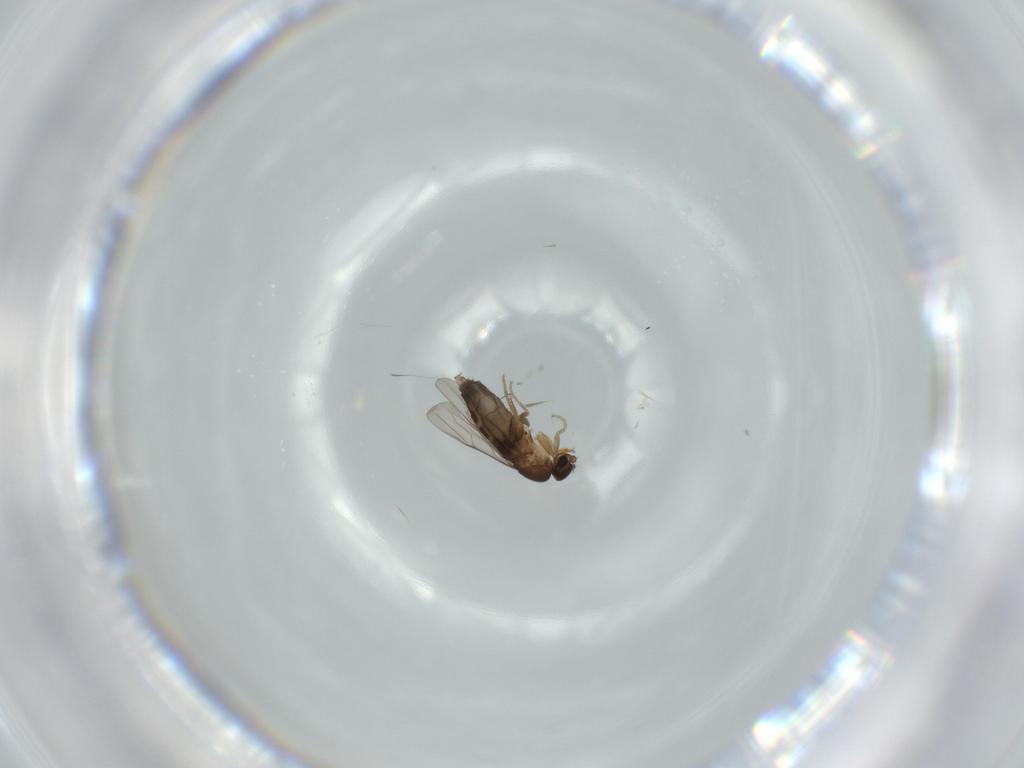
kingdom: Animalia
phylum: Arthropoda
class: Insecta
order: Diptera
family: Phoridae
